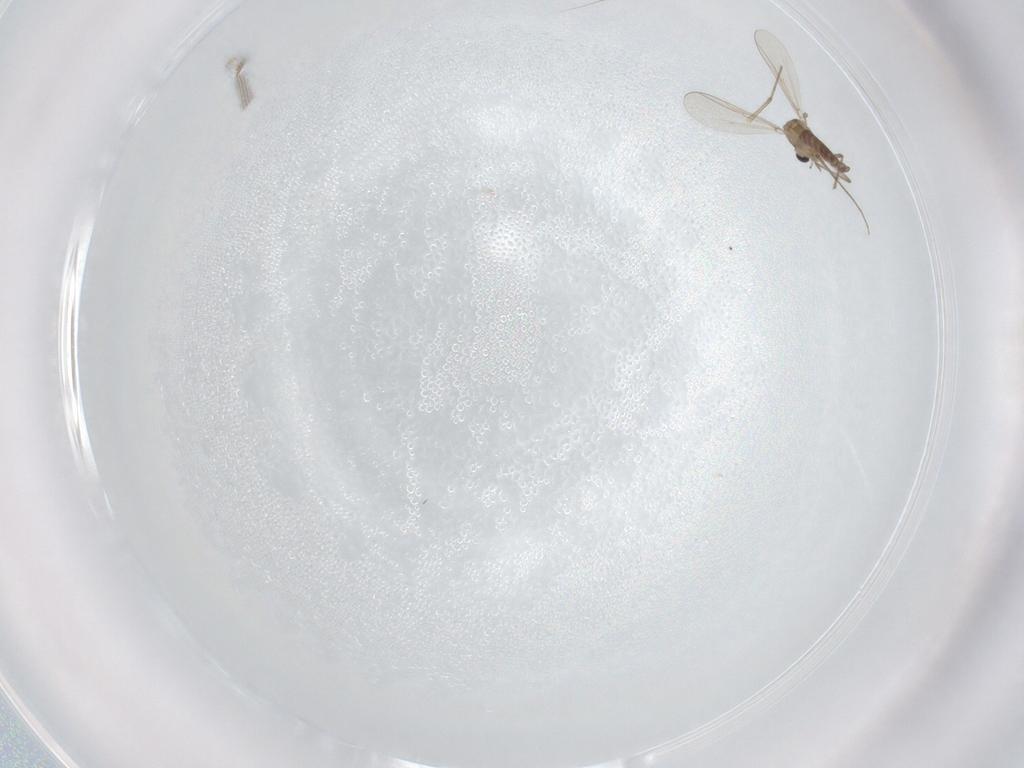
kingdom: Animalia
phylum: Arthropoda
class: Insecta
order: Diptera
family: Chironomidae
